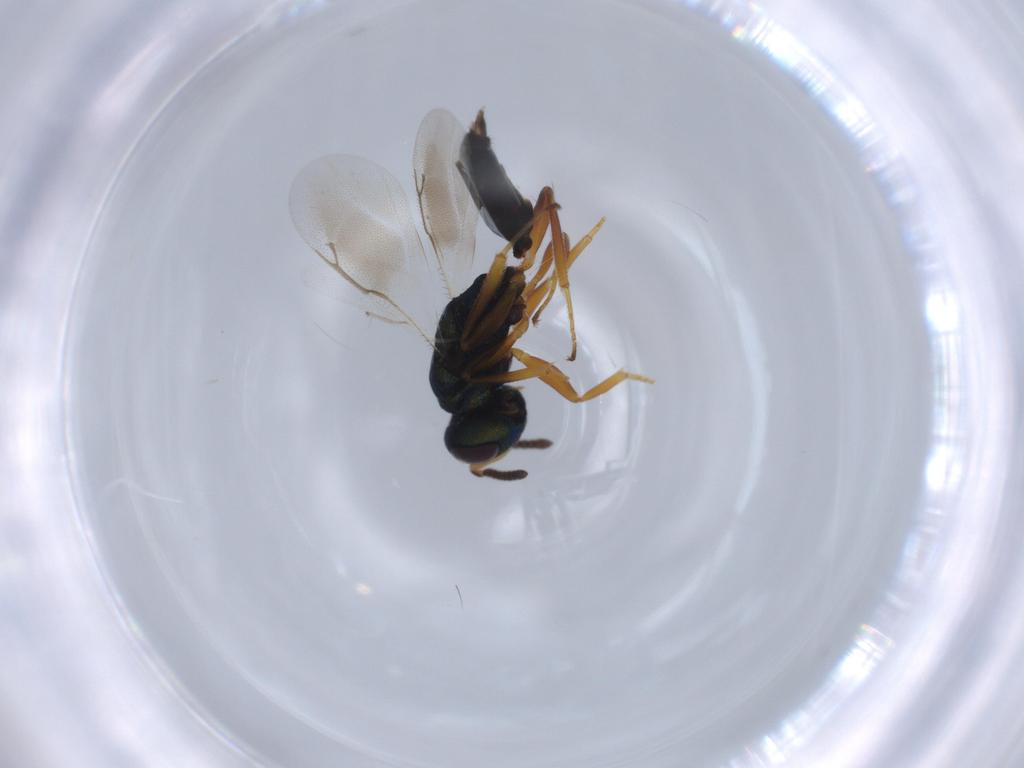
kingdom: Animalia
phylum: Arthropoda
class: Insecta
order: Hymenoptera
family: Pteromalidae
